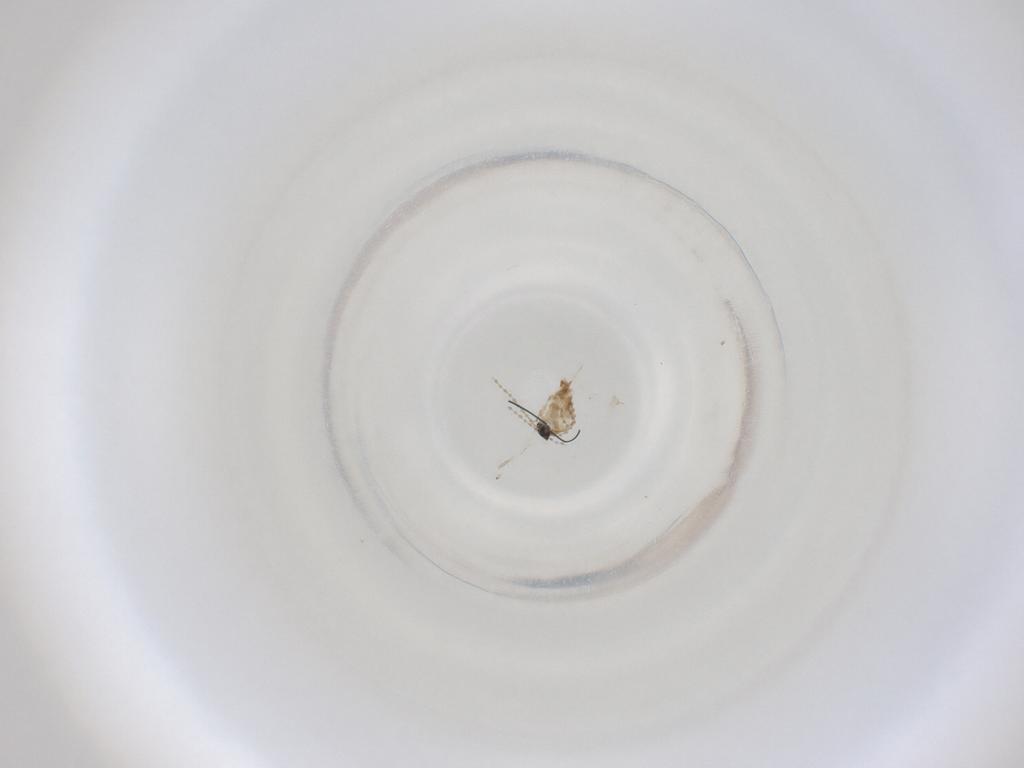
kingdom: Animalia
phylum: Arthropoda
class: Insecta
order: Diptera
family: Cecidomyiidae
